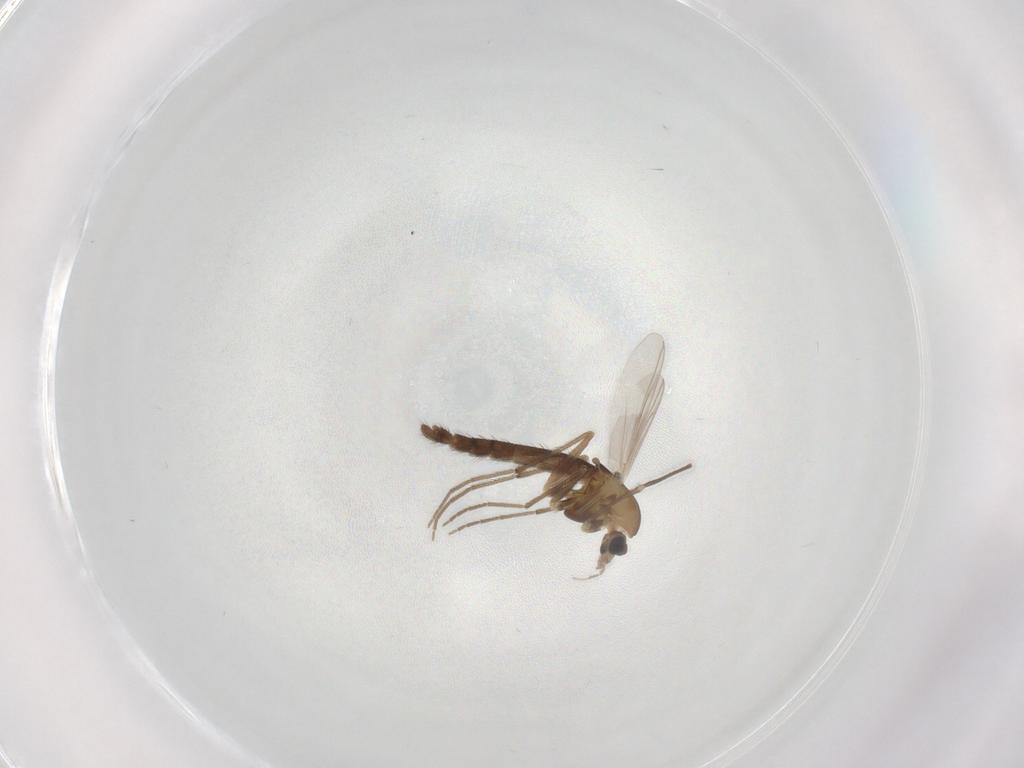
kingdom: Animalia
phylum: Arthropoda
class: Insecta
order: Diptera
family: Chironomidae
